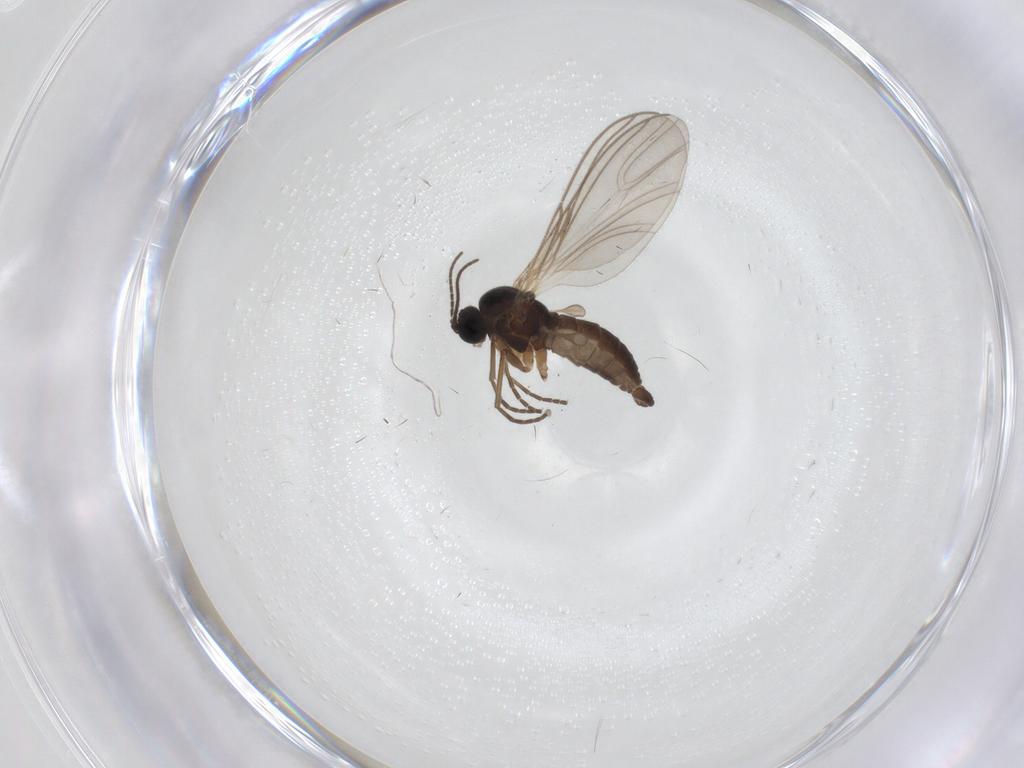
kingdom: Animalia
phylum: Arthropoda
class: Insecta
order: Diptera
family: Sciaridae
